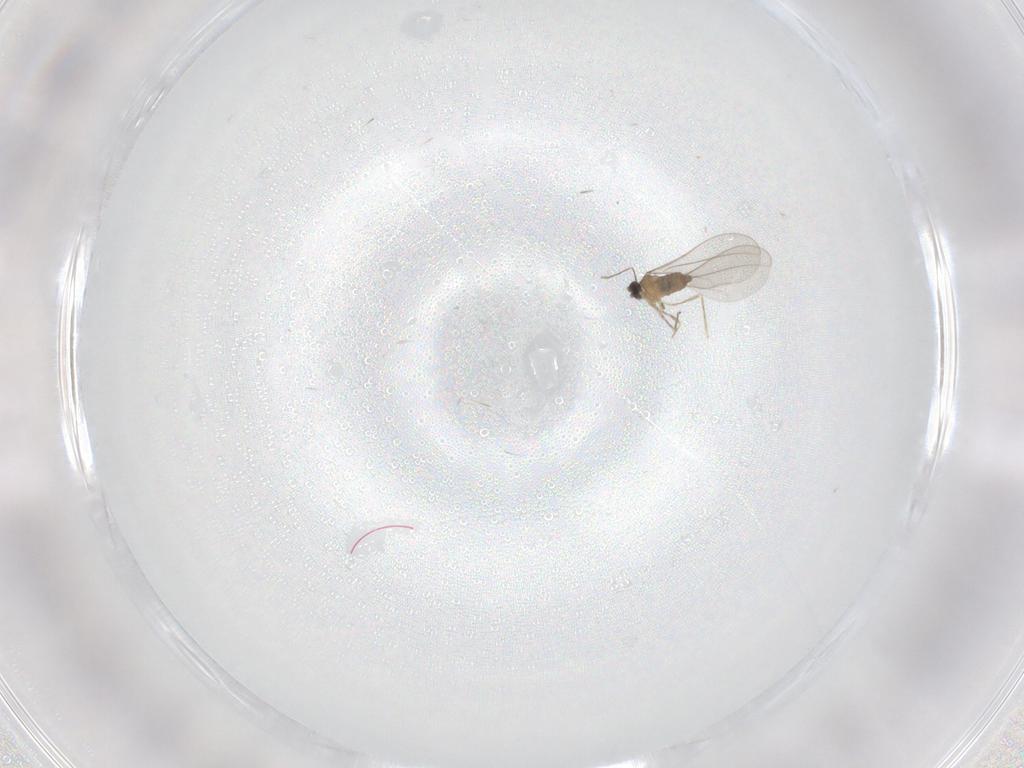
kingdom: Animalia
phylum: Arthropoda
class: Insecta
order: Diptera
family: Cecidomyiidae
